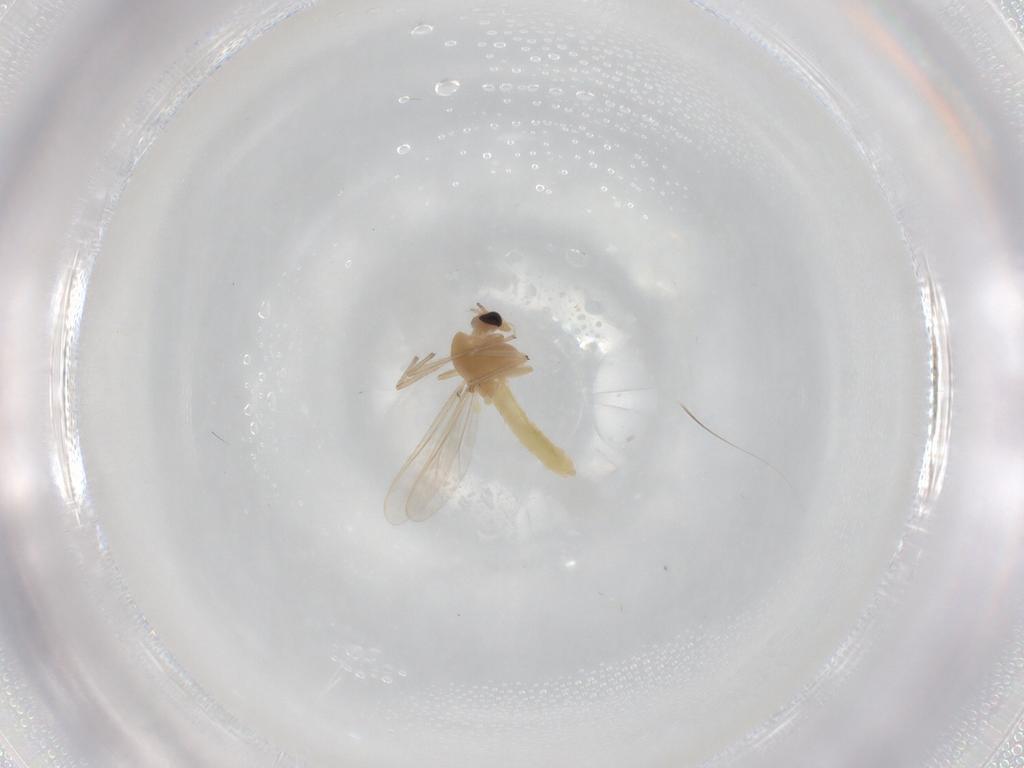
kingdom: Animalia
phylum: Arthropoda
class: Insecta
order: Diptera
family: Chironomidae
